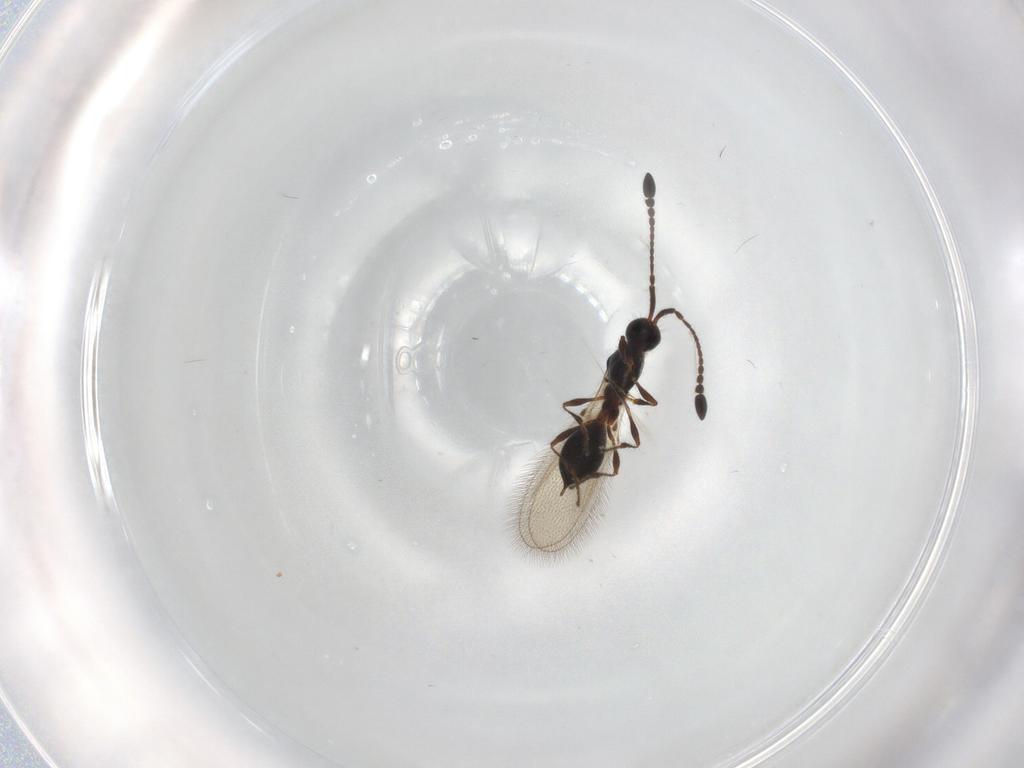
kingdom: Animalia
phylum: Arthropoda
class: Insecta
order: Hymenoptera
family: Diapriidae
